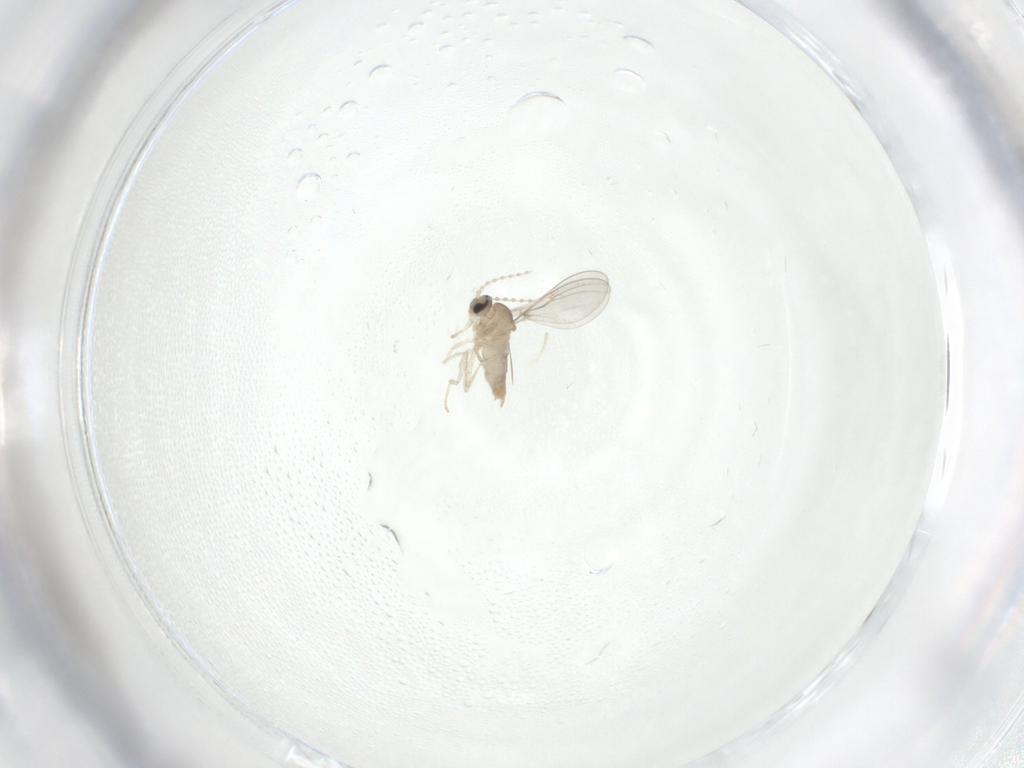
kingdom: Animalia
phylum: Arthropoda
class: Insecta
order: Diptera
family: Cecidomyiidae
